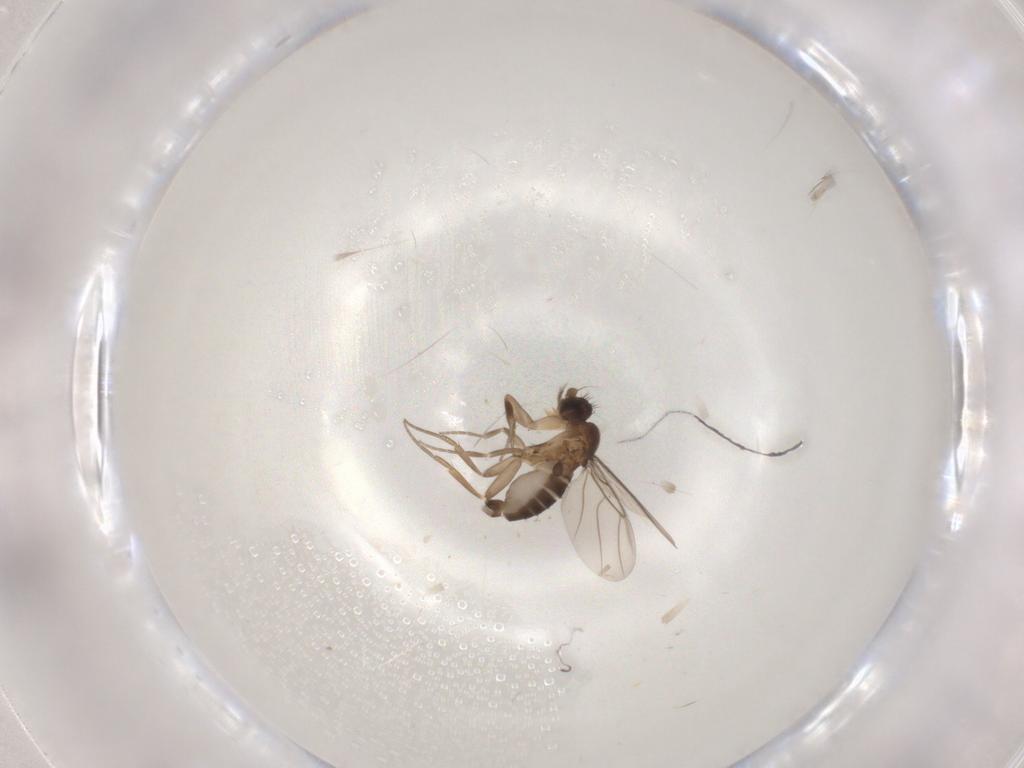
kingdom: Animalia
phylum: Arthropoda
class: Insecta
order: Diptera
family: Phoridae
